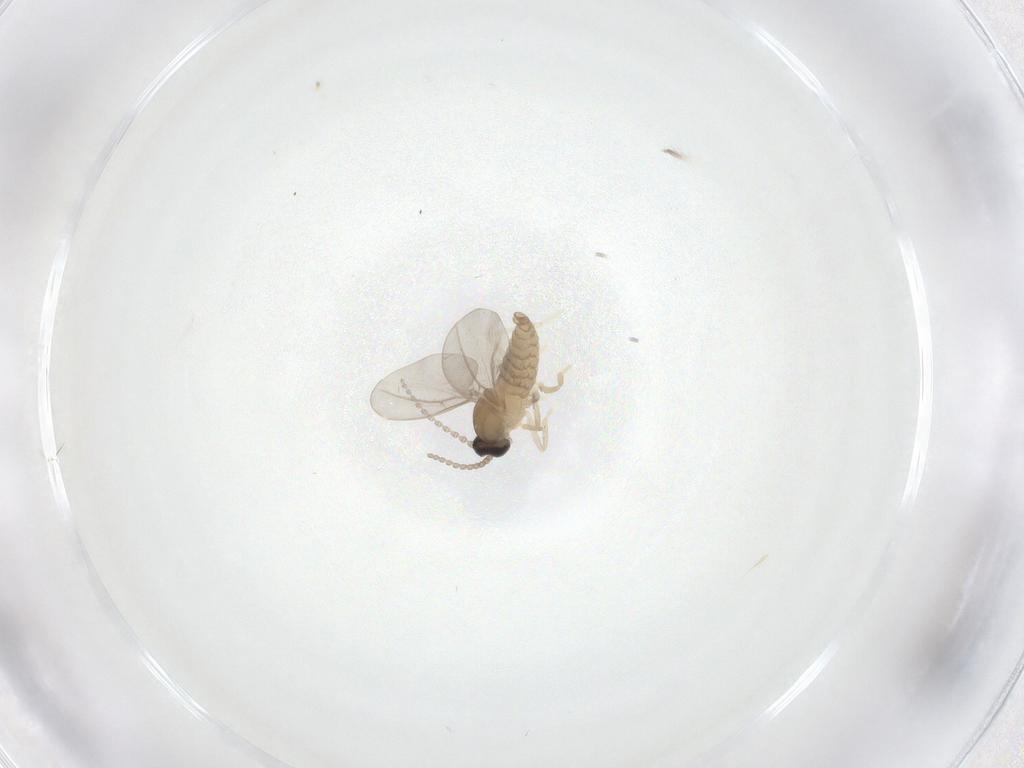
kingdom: Animalia
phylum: Arthropoda
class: Insecta
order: Diptera
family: Cecidomyiidae
